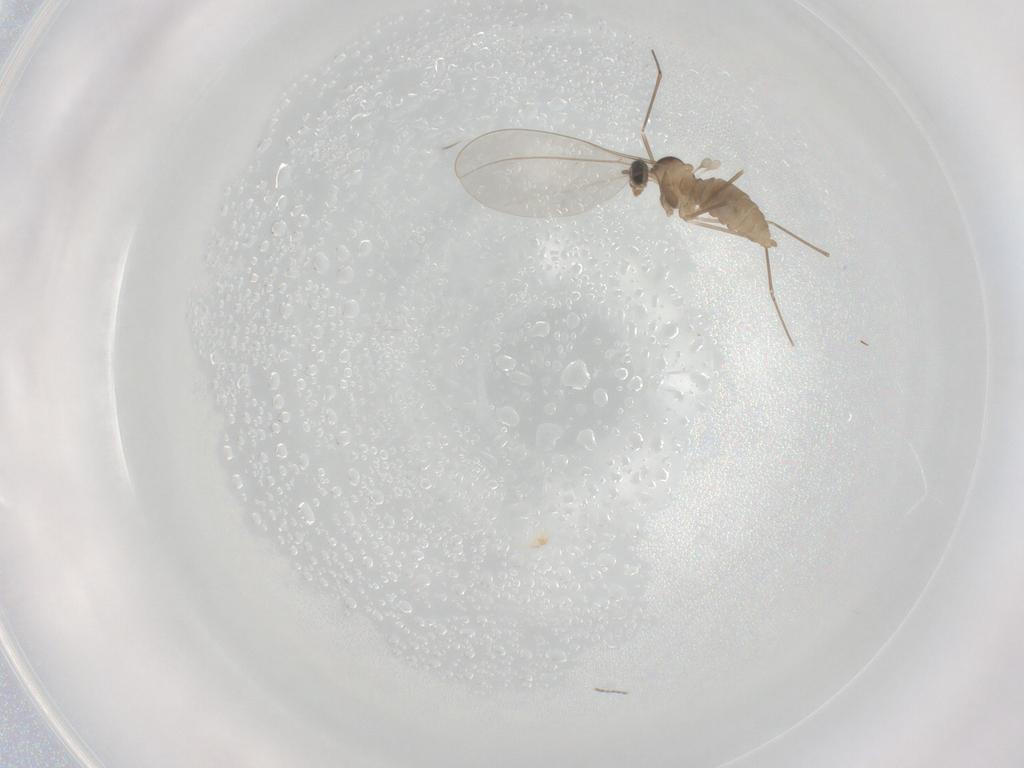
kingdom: Animalia
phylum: Arthropoda
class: Insecta
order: Diptera
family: Cecidomyiidae
